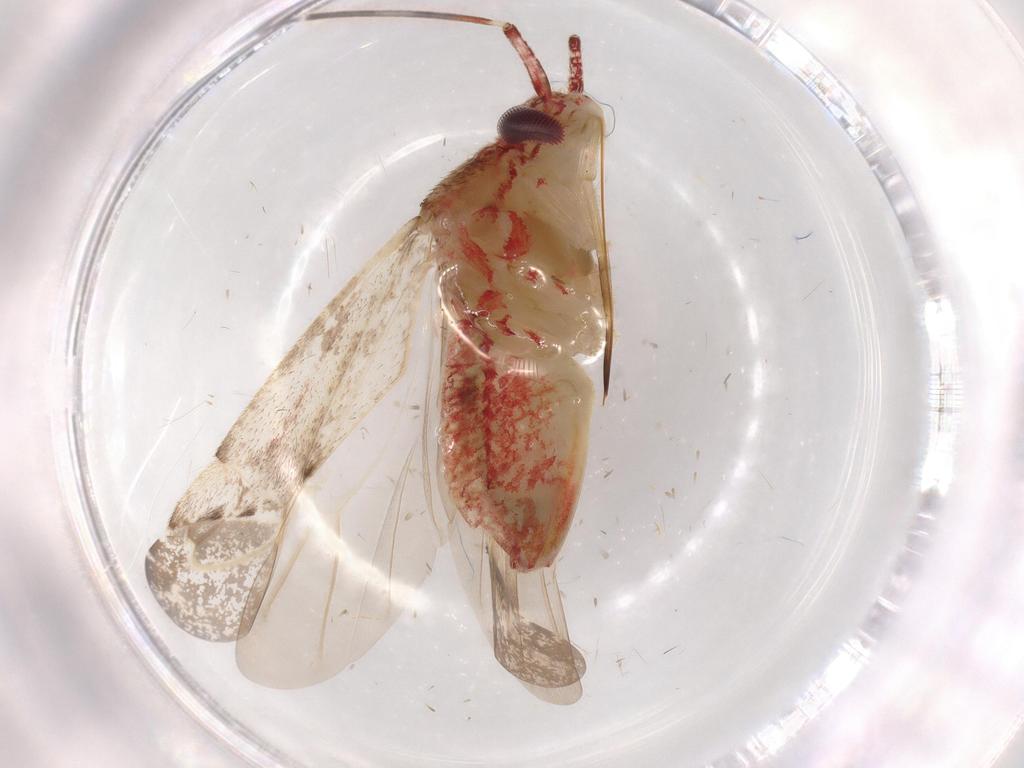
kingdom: Animalia
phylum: Arthropoda
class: Insecta
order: Hemiptera
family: Miridae
